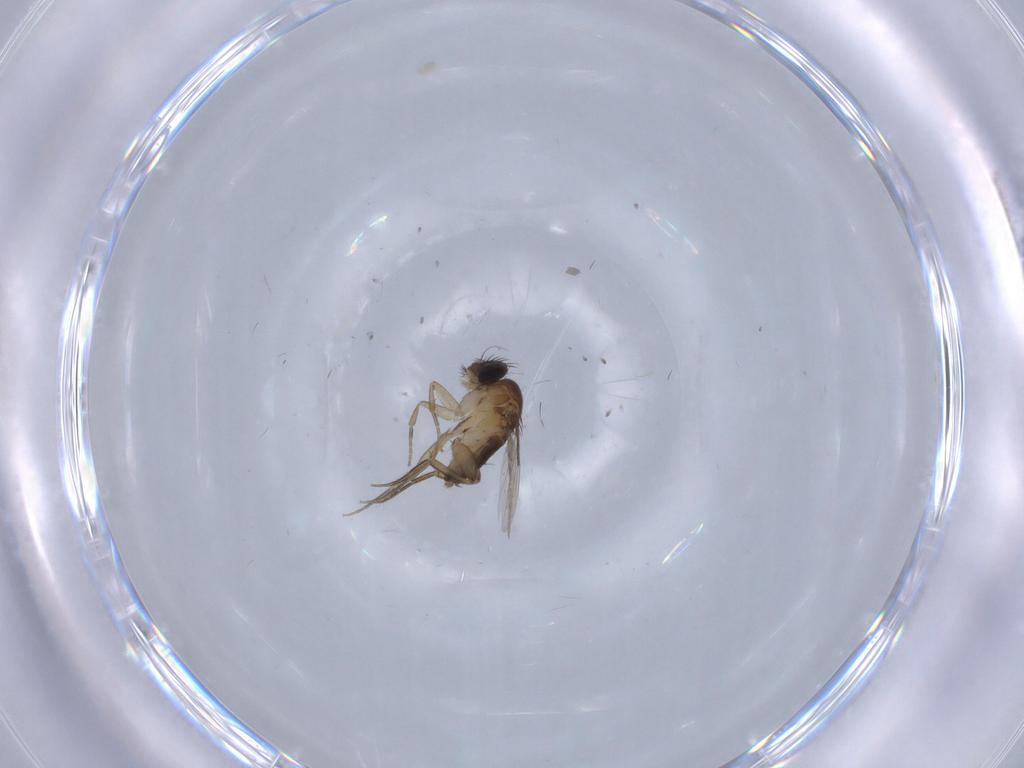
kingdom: Animalia
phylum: Arthropoda
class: Insecta
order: Diptera
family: Phoridae
